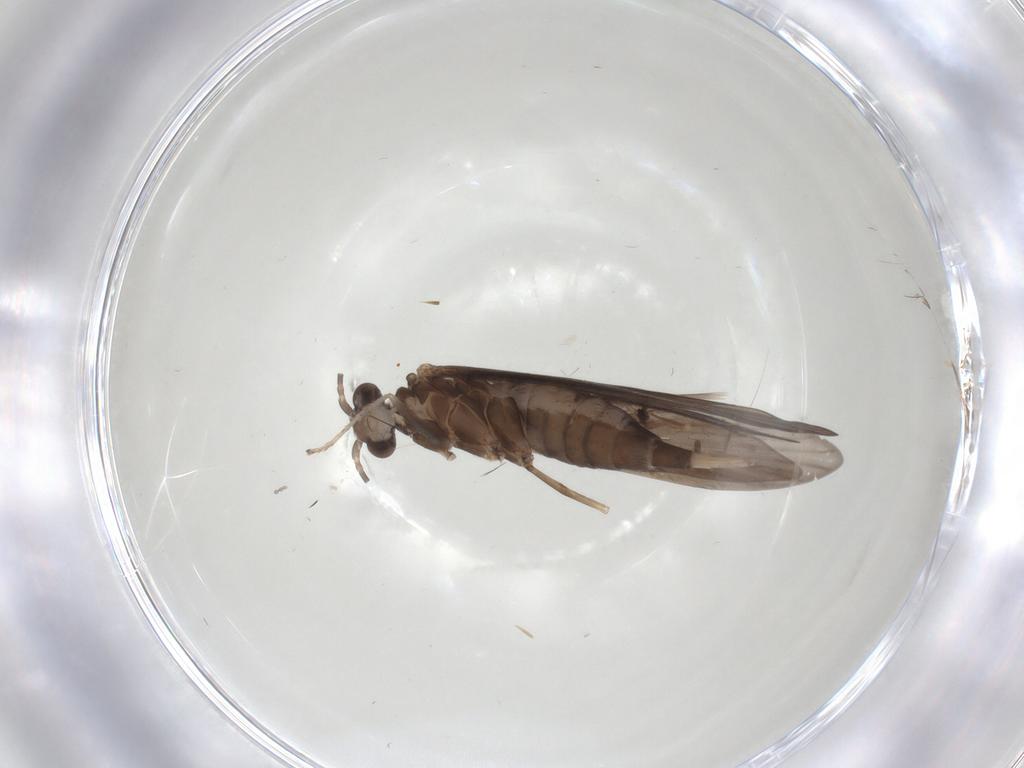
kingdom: Animalia
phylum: Arthropoda
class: Insecta
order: Trichoptera
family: Xiphocentronidae
